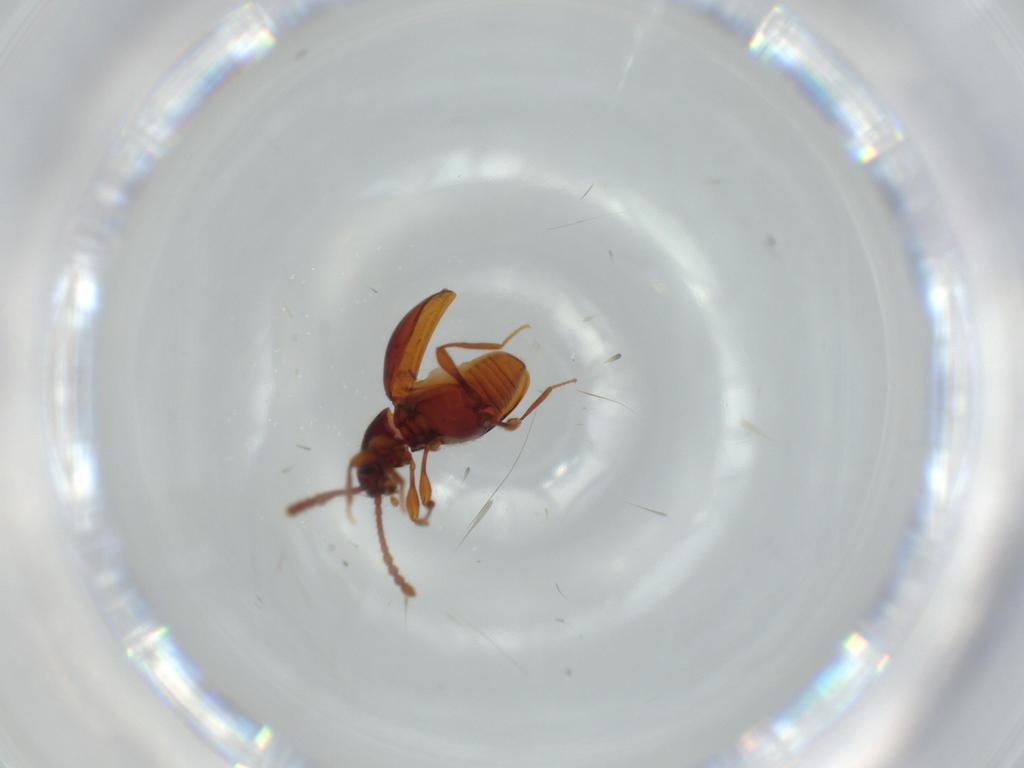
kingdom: Animalia
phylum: Arthropoda
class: Insecta
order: Coleoptera
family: Staphylinidae
